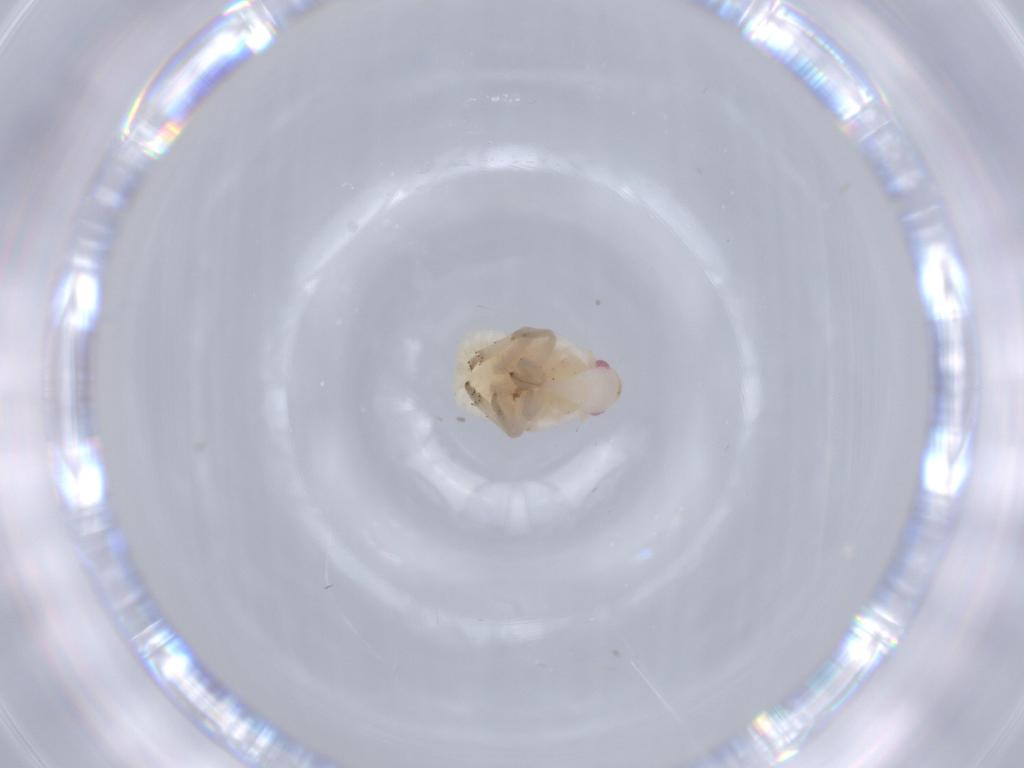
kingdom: Animalia
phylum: Arthropoda
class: Insecta
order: Hemiptera
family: Flatidae
